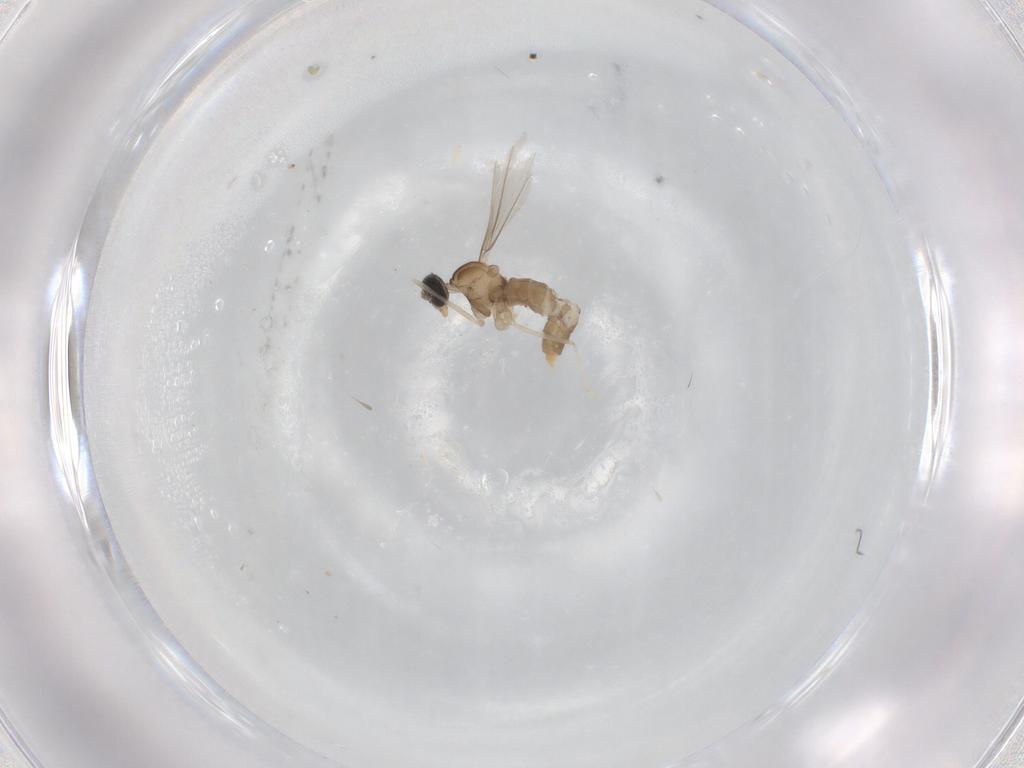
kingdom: Animalia
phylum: Arthropoda
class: Insecta
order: Diptera
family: Cecidomyiidae
